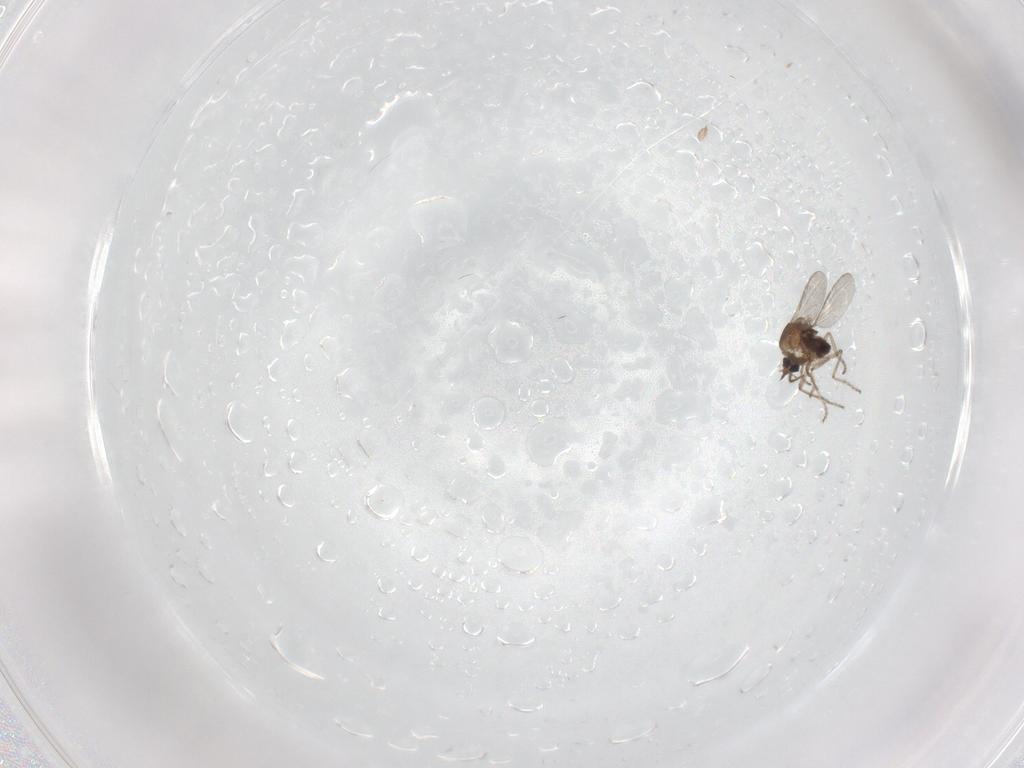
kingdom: Animalia
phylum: Arthropoda
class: Insecta
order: Diptera
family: Ceratopogonidae
